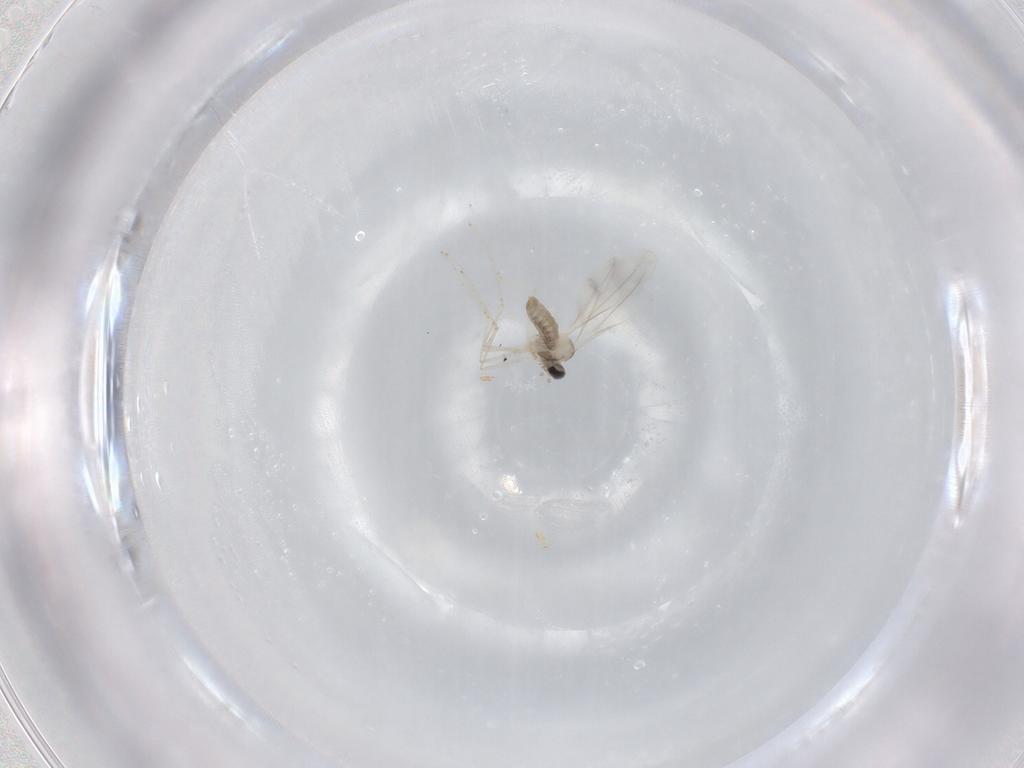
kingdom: Animalia
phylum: Arthropoda
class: Insecta
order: Diptera
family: Cecidomyiidae
